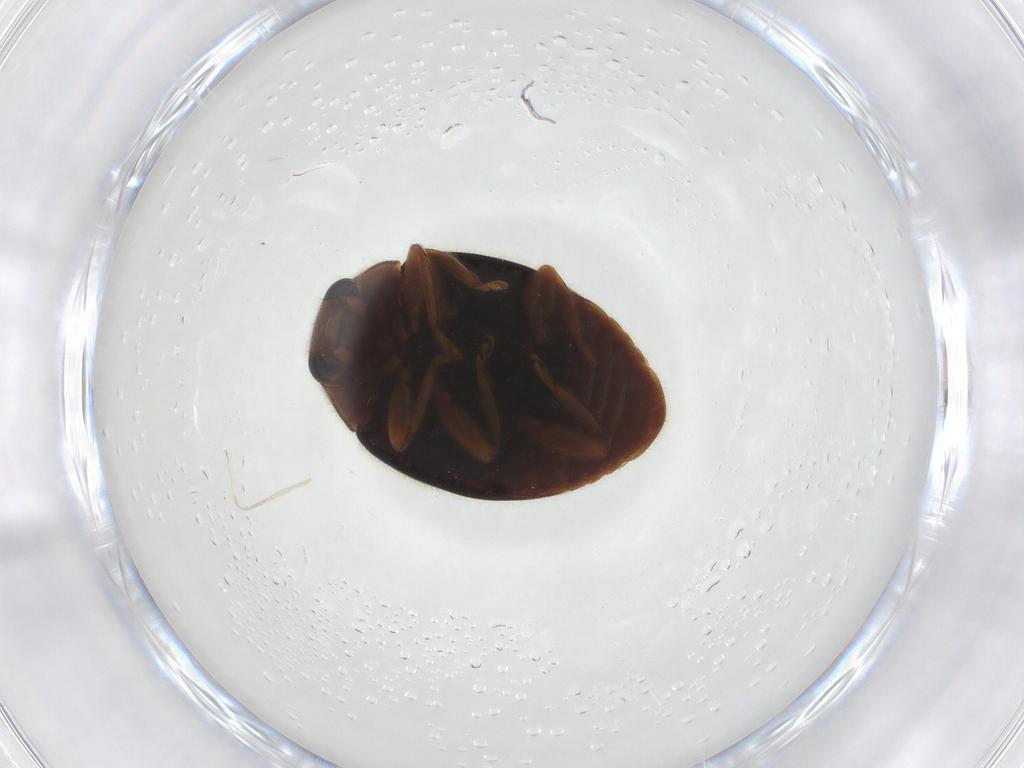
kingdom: Animalia
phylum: Arthropoda
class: Insecta
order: Coleoptera
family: Coccinellidae
